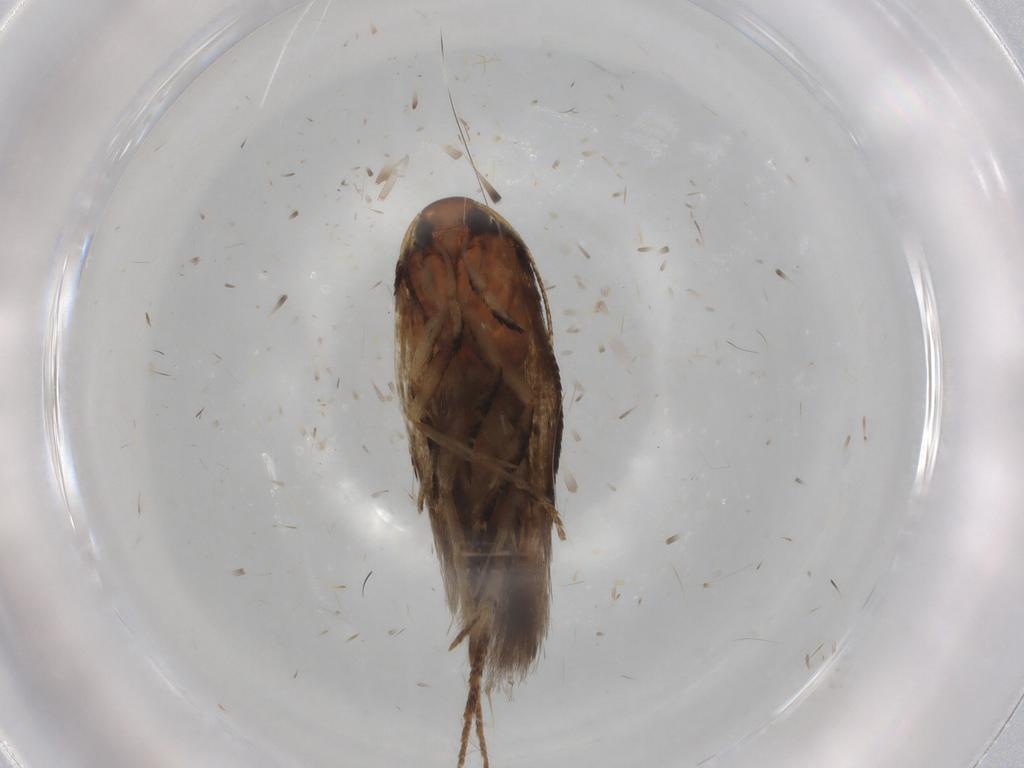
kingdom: Animalia
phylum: Arthropoda
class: Insecta
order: Lepidoptera
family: Cosmopterigidae
